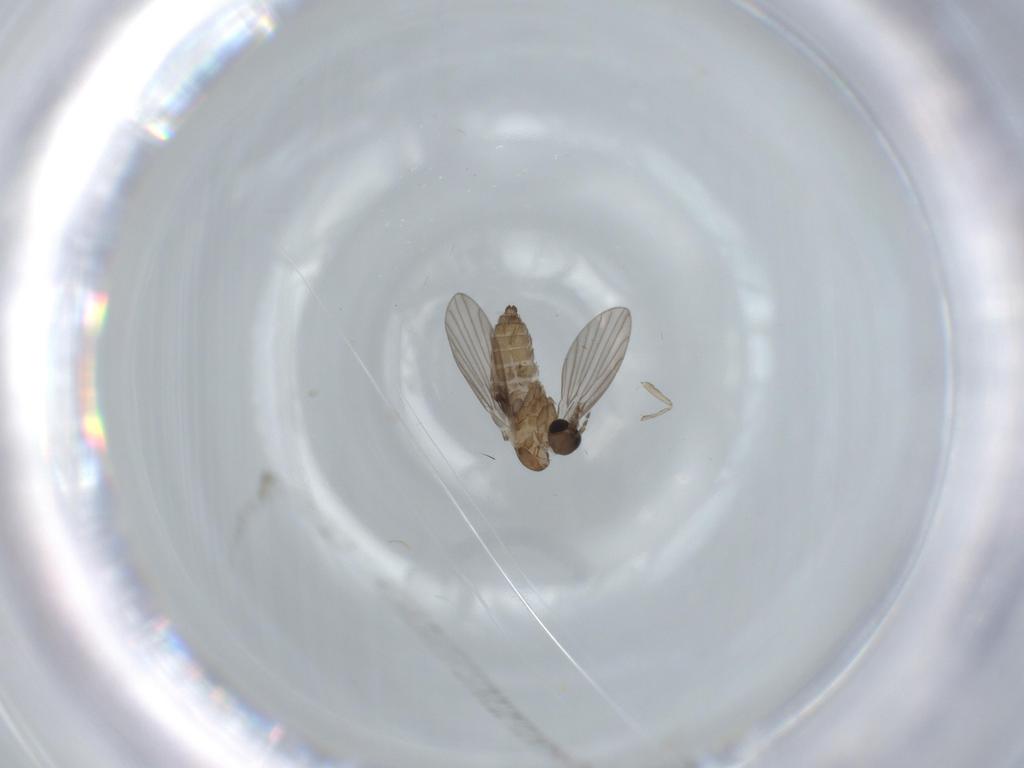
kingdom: Animalia
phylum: Arthropoda
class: Insecta
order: Diptera
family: Psychodidae
